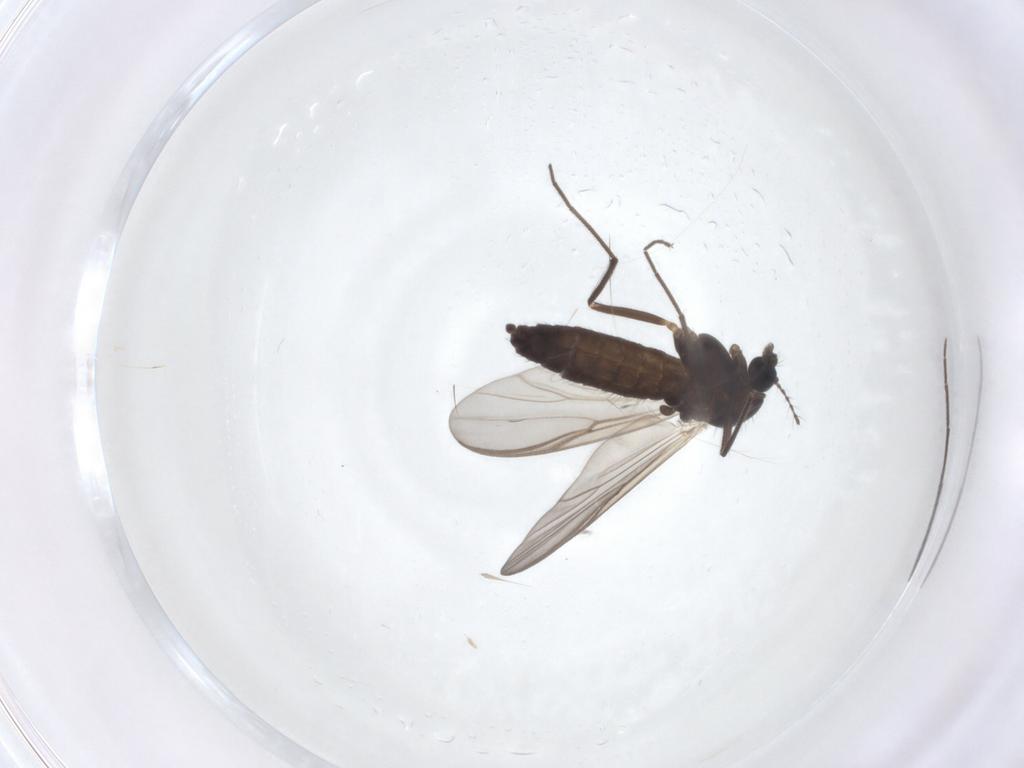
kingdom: Animalia
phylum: Arthropoda
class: Insecta
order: Diptera
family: Chironomidae
